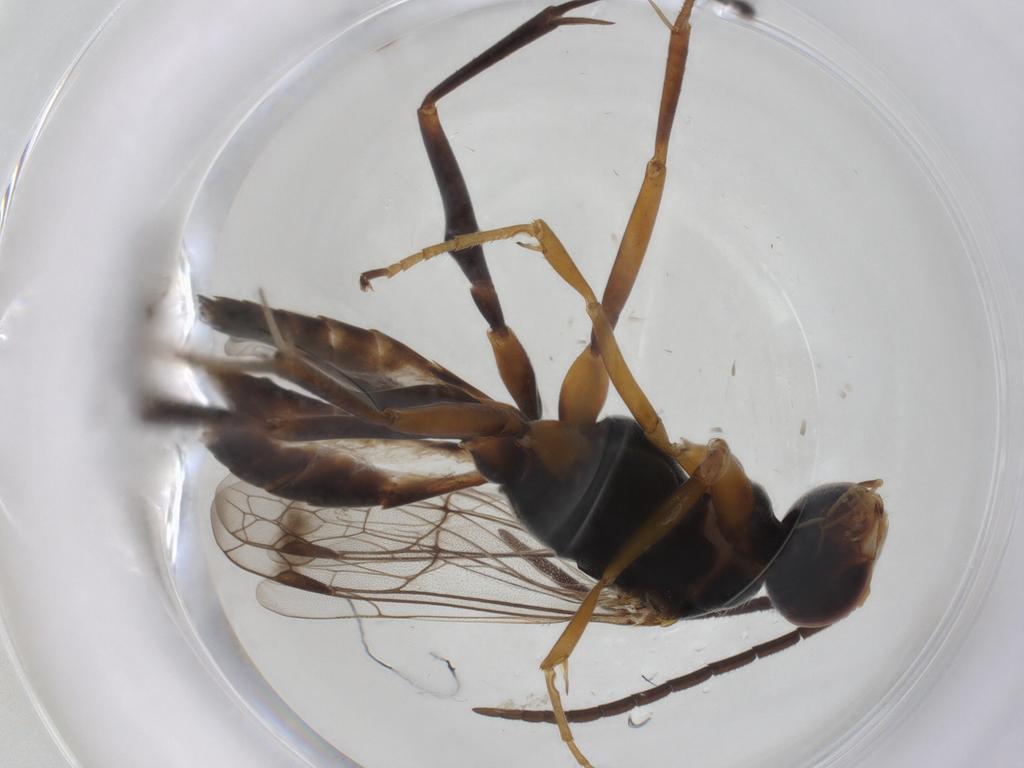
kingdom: Animalia
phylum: Arthropoda
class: Insecta
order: Hymenoptera
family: Pompilidae
